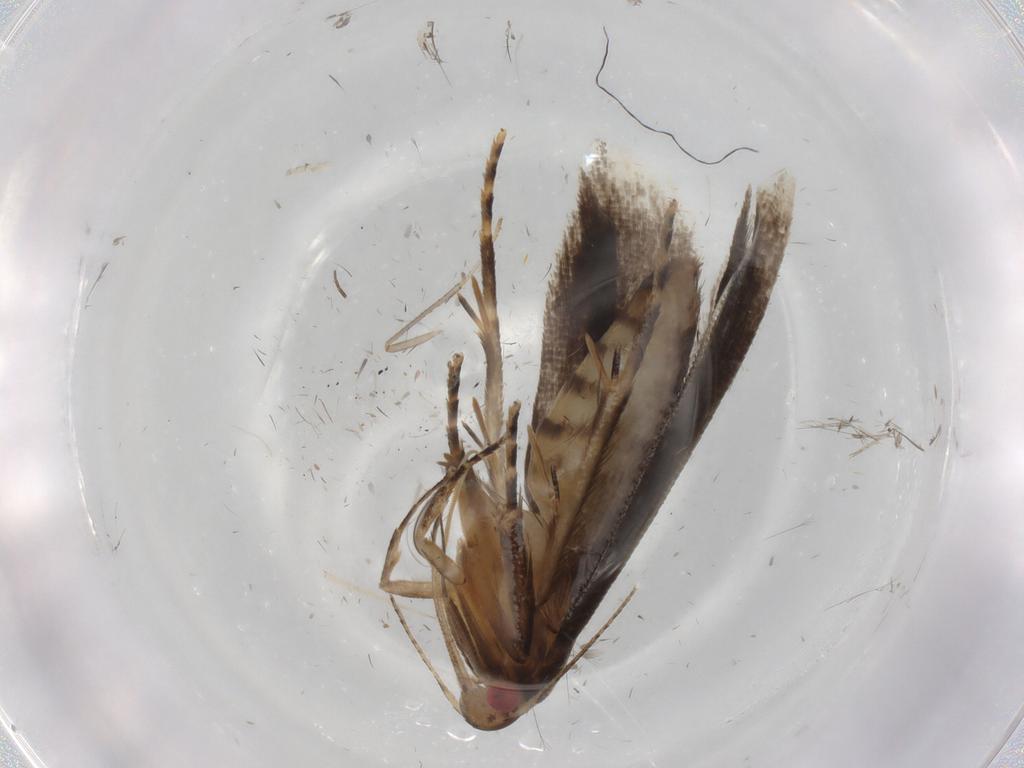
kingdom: Animalia
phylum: Arthropoda
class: Insecta
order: Lepidoptera
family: Gelechiidae
